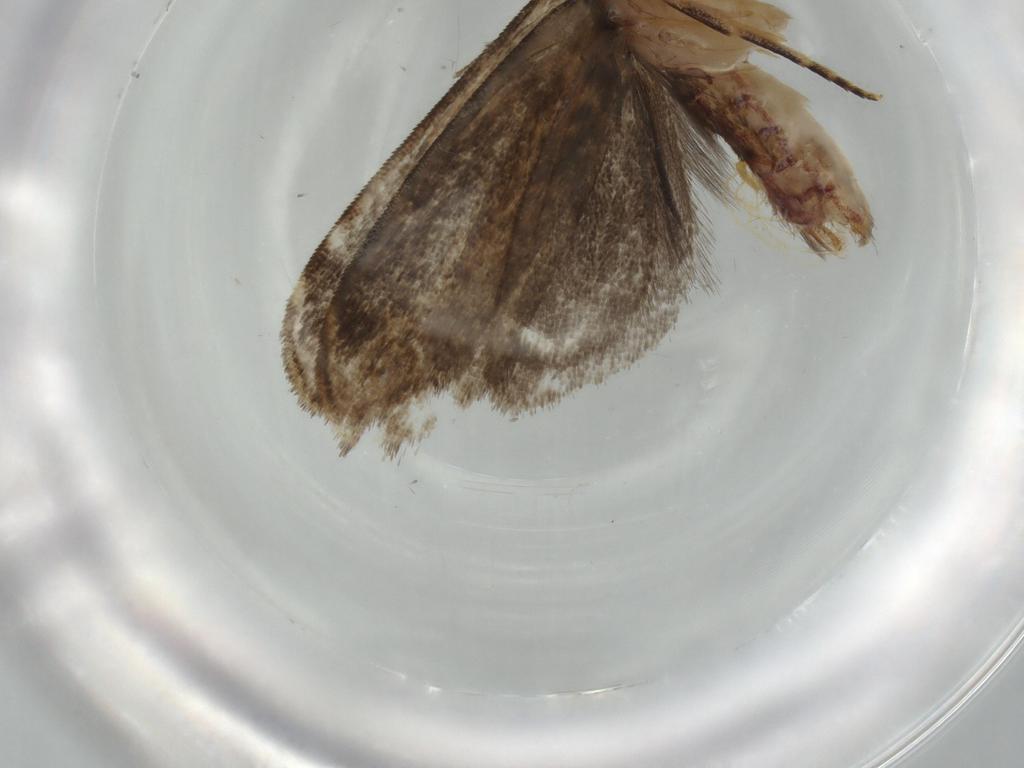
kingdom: Animalia
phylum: Arthropoda
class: Insecta
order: Lepidoptera
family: Dryadaulidae
